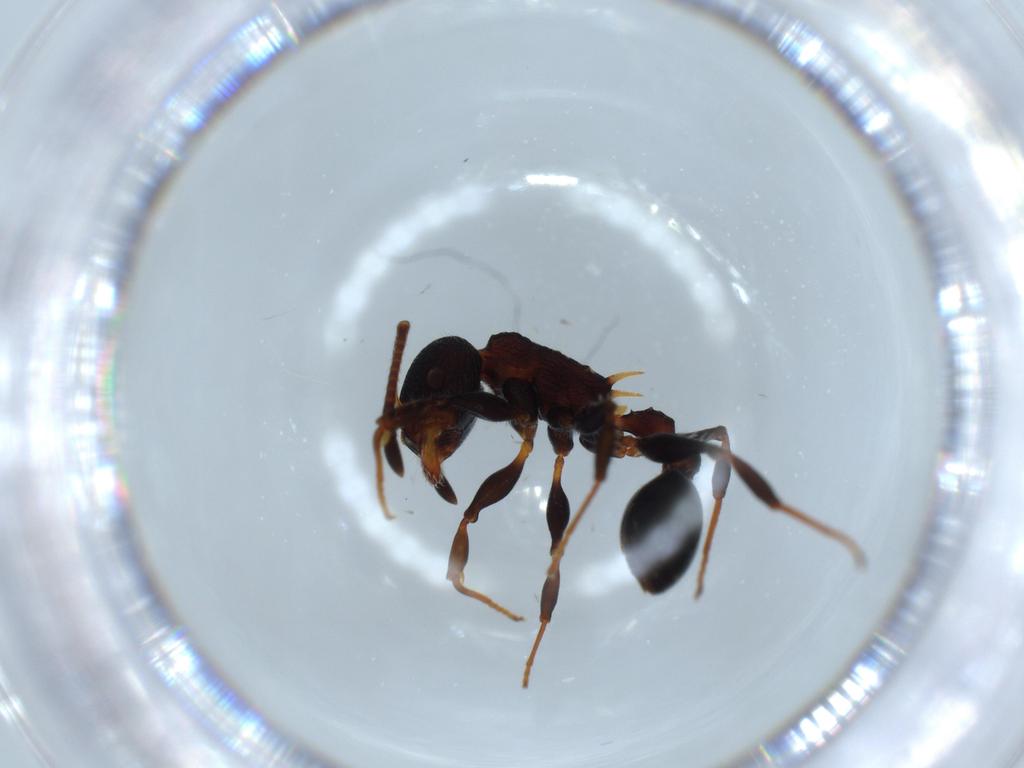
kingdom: Animalia
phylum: Arthropoda
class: Insecta
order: Hymenoptera
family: Formicidae
